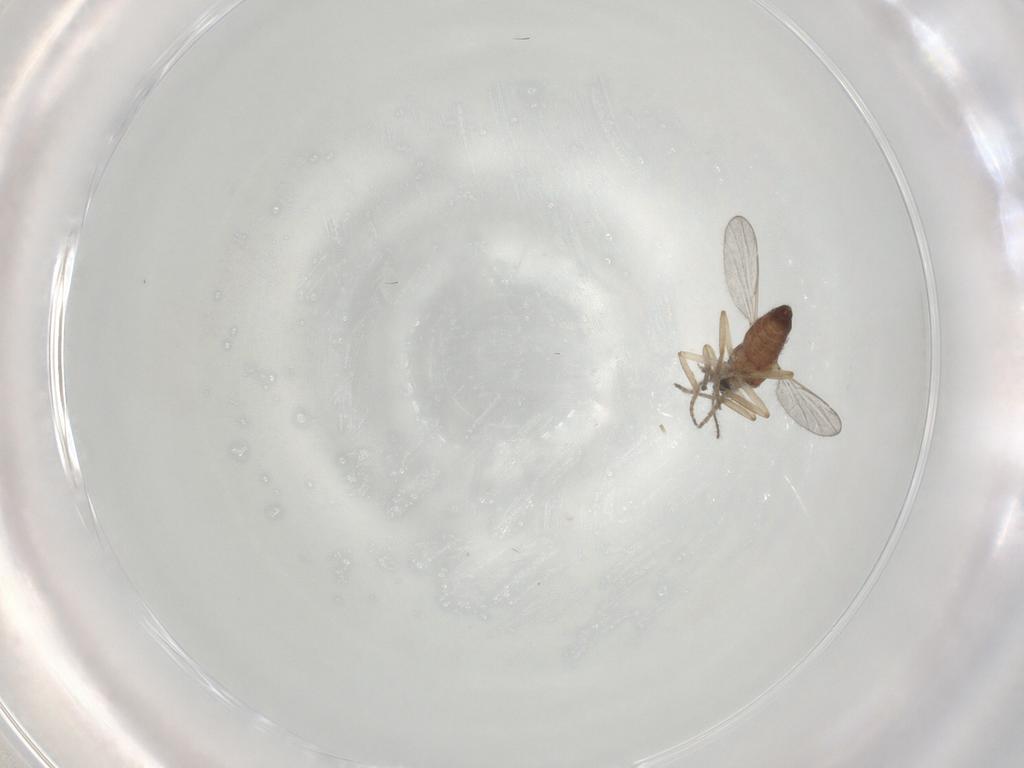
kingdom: Animalia
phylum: Arthropoda
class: Insecta
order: Diptera
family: Ceratopogonidae
